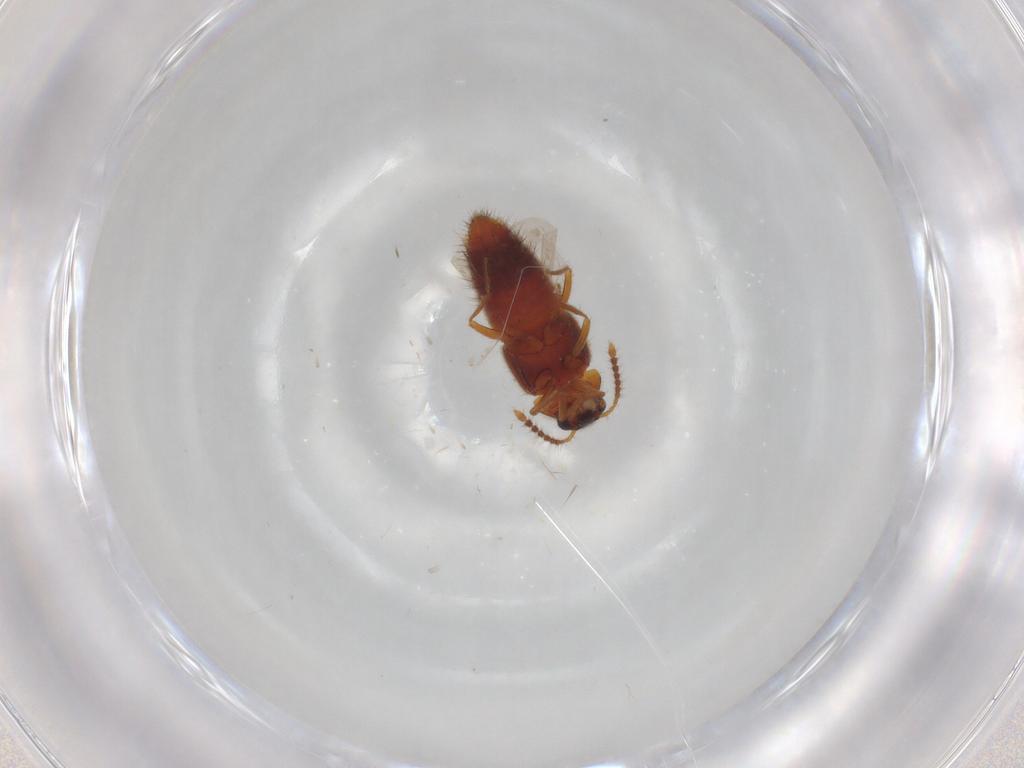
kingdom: Animalia
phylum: Arthropoda
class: Insecta
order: Coleoptera
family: Staphylinidae
